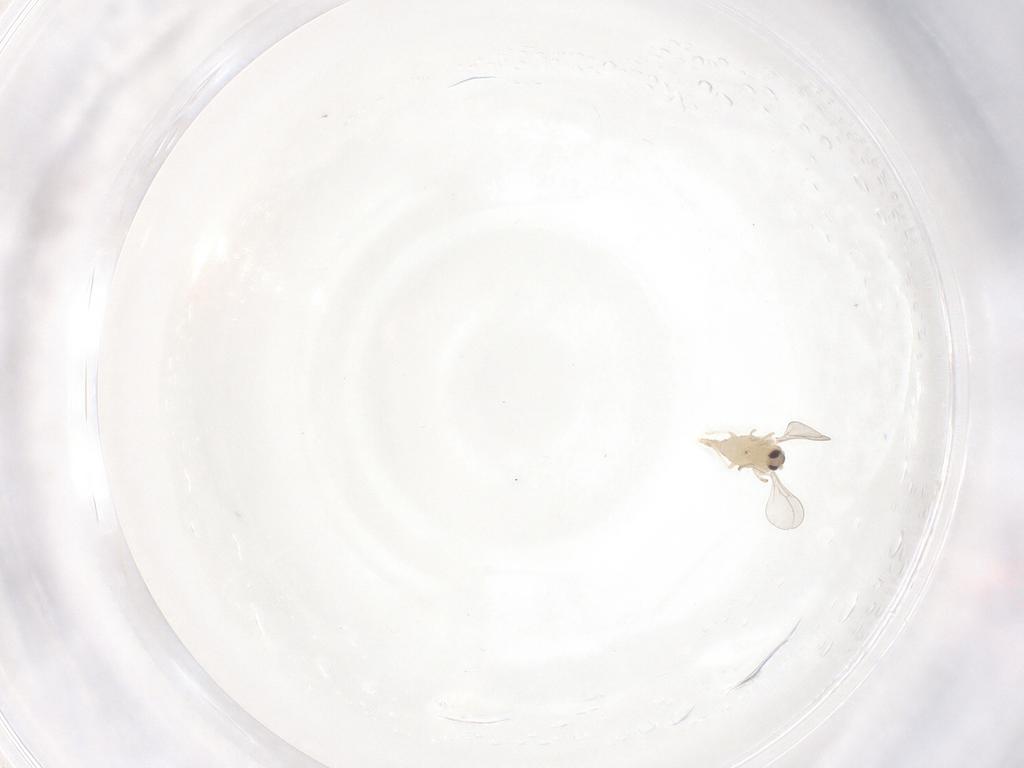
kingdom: Animalia
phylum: Arthropoda
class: Insecta
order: Diptera
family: Cecidomyiidae
